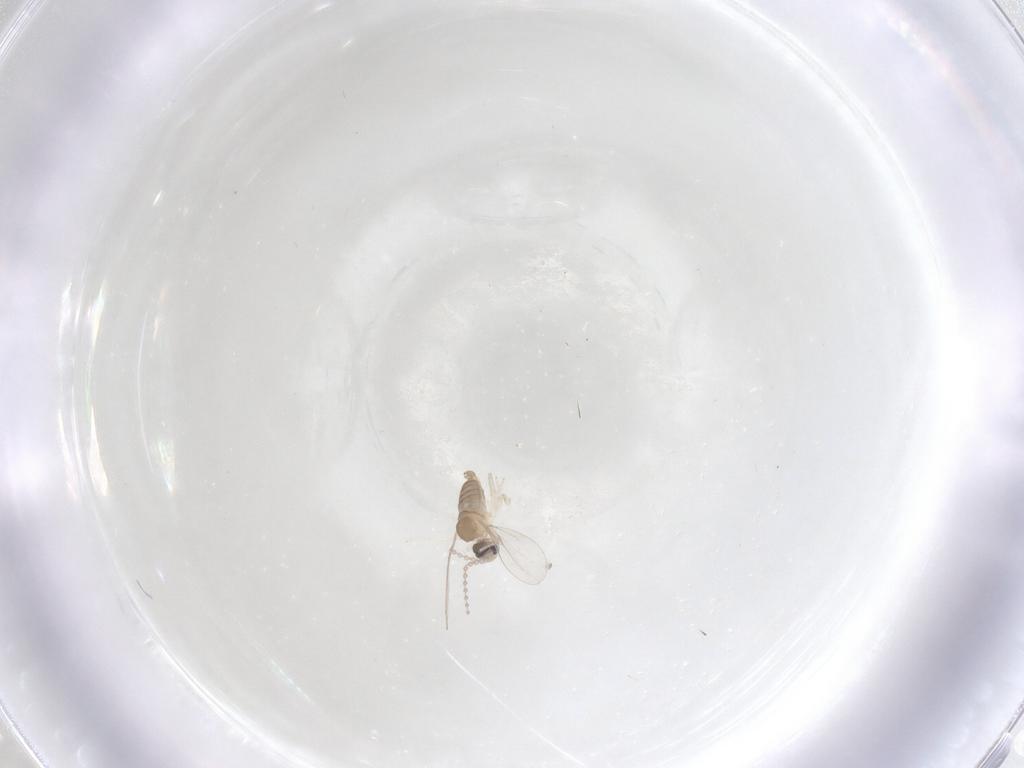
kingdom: Animalia
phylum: Arthropoda
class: Insecta
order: Diptera
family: Cecidomyiidae
